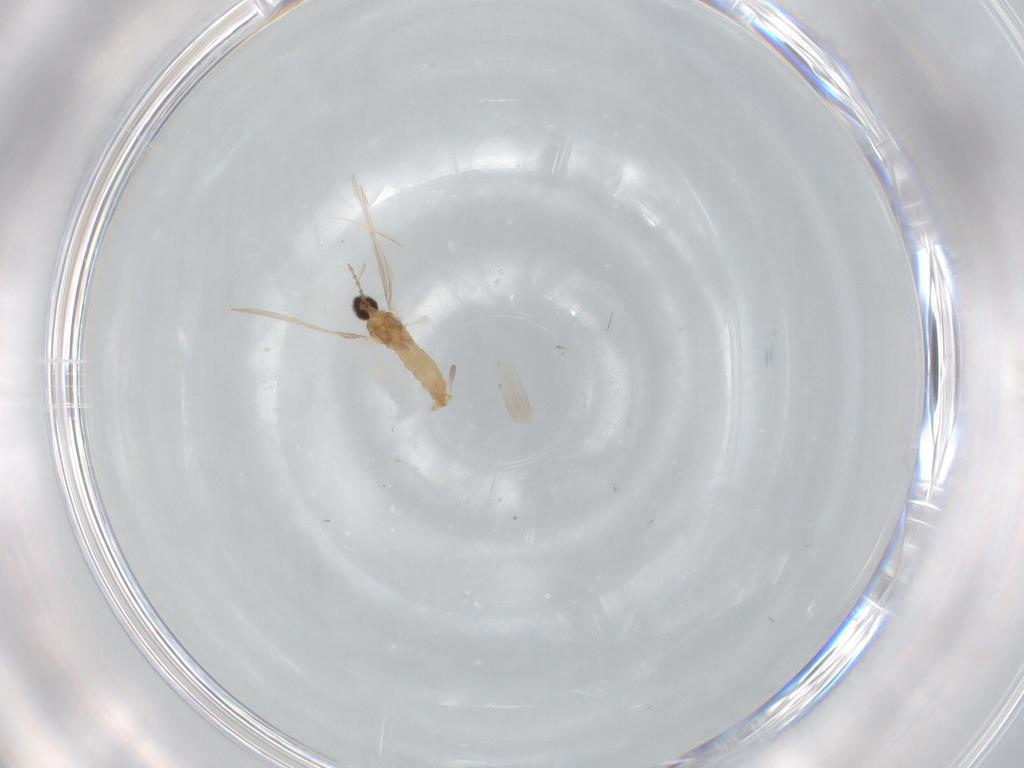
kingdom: Animalia
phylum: Arthropoda
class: Insecta
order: Diptera
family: Cecidomyiidae
